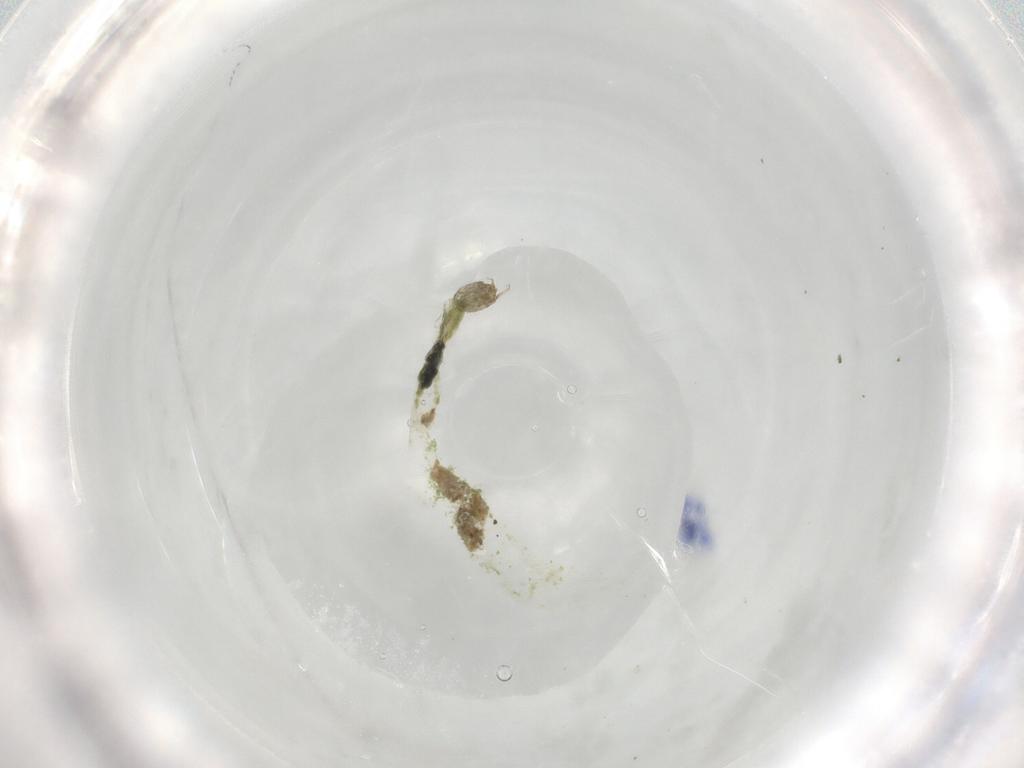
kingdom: Animalia
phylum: Arthropoda
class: Insecta
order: Diptera
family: Chironomidae
